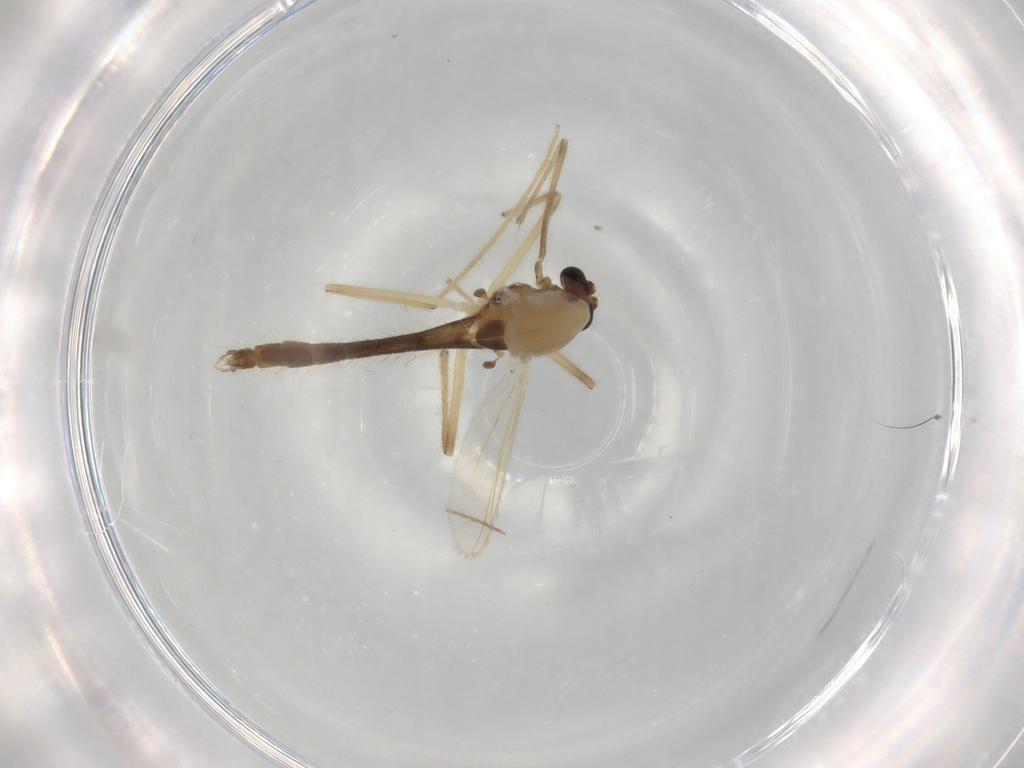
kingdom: Animalia
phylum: Arthropoda
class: Insecta
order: Diptera
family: Chironomidae
